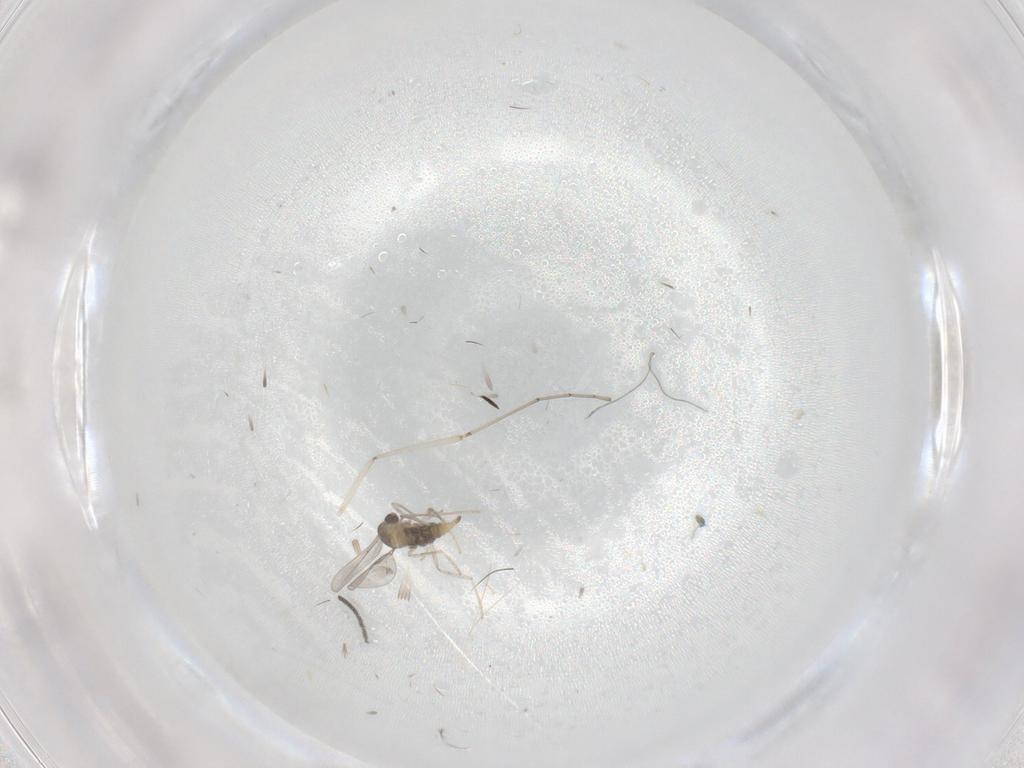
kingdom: Animalia
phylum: Arthropoda
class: Insecta
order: Diptera
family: Cecidomyiidae
